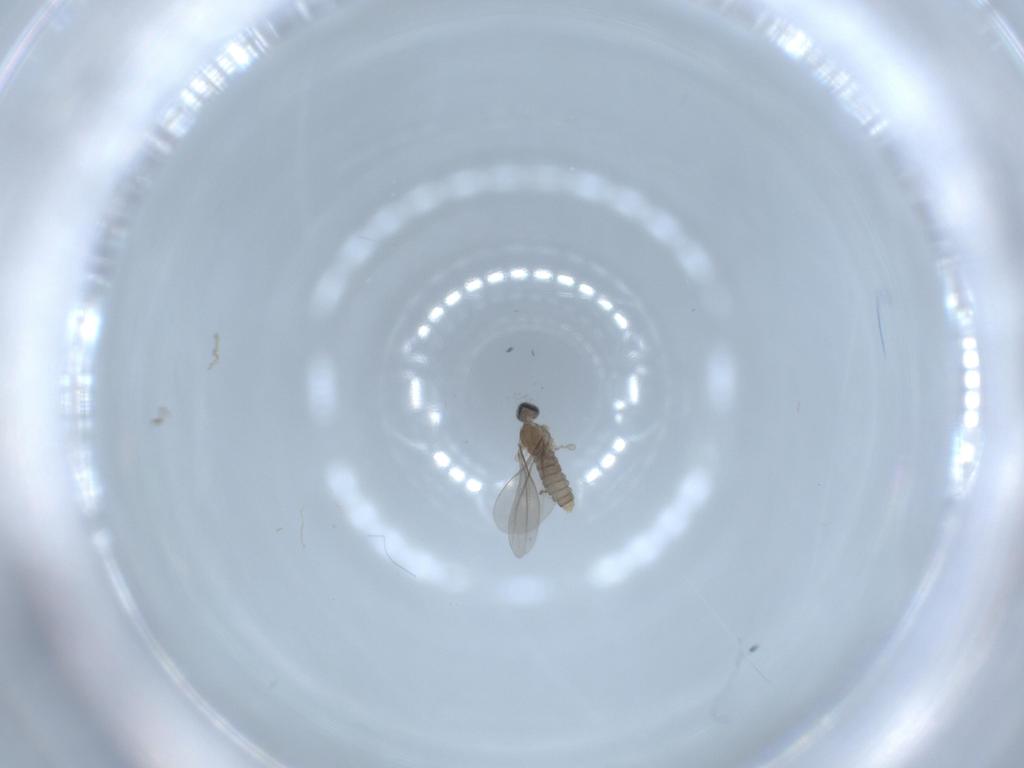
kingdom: Animalia
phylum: Arthropoda
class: Insecta
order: Diptera
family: Cecidomyiidae
